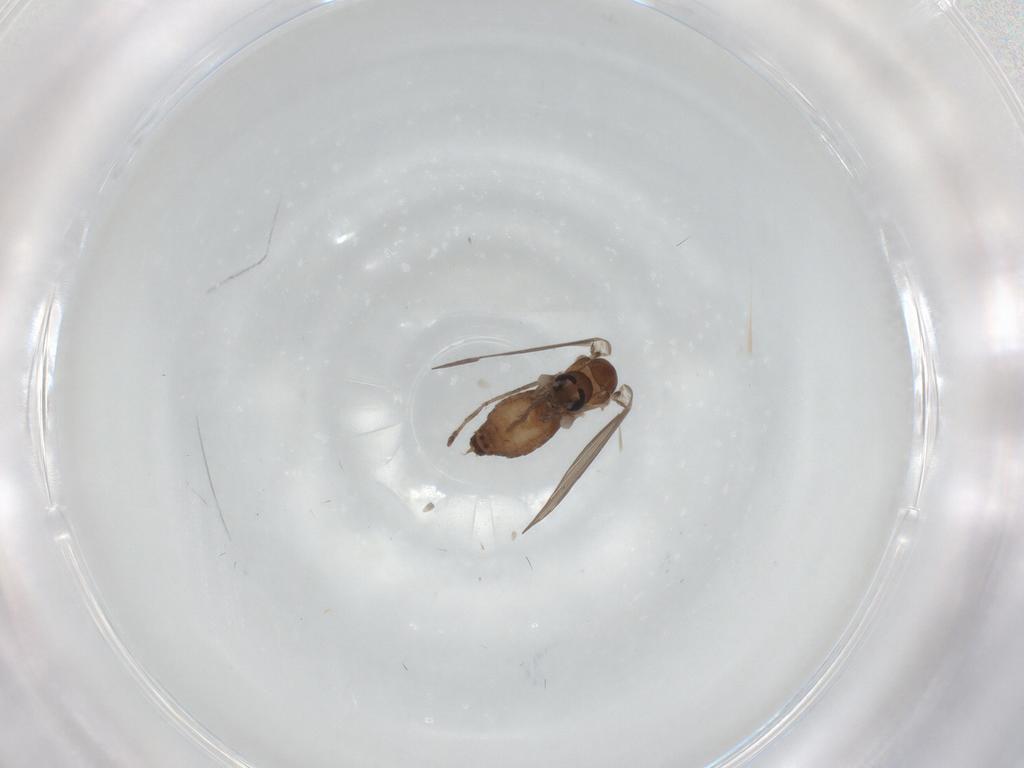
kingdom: Animalia
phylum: Arthropoda
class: Insecta
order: Diptera
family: Psychodidae
